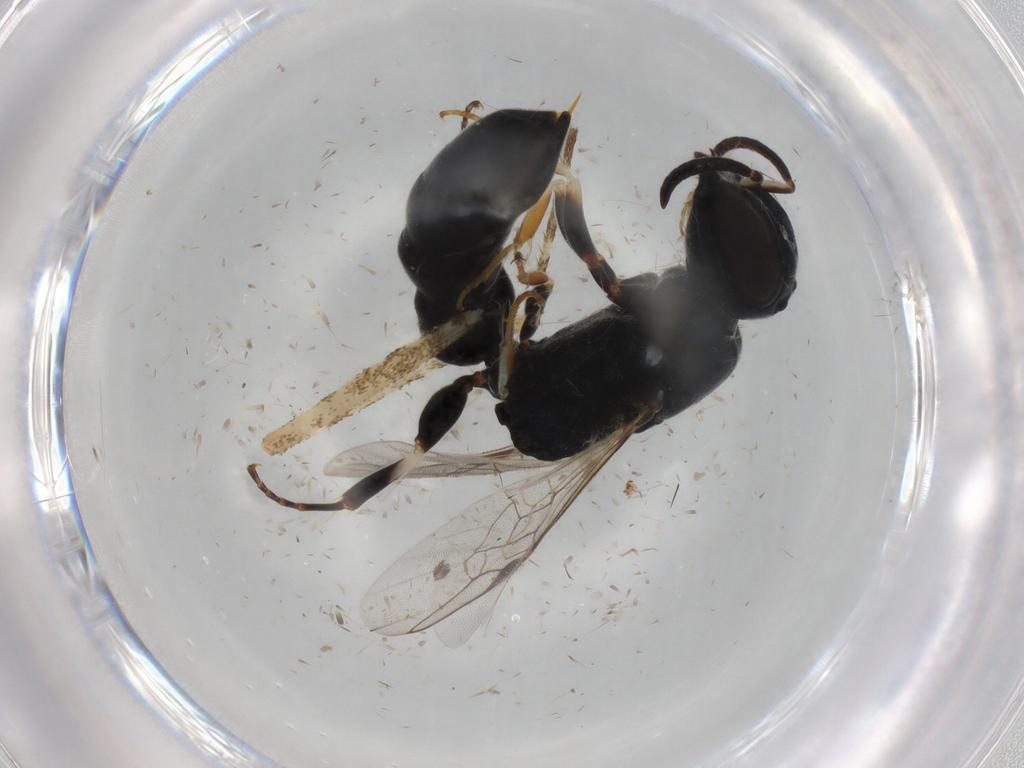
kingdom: Animalia
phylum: Arthropoda
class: Insecta
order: Hymenoptera
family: Pemphredonidae
